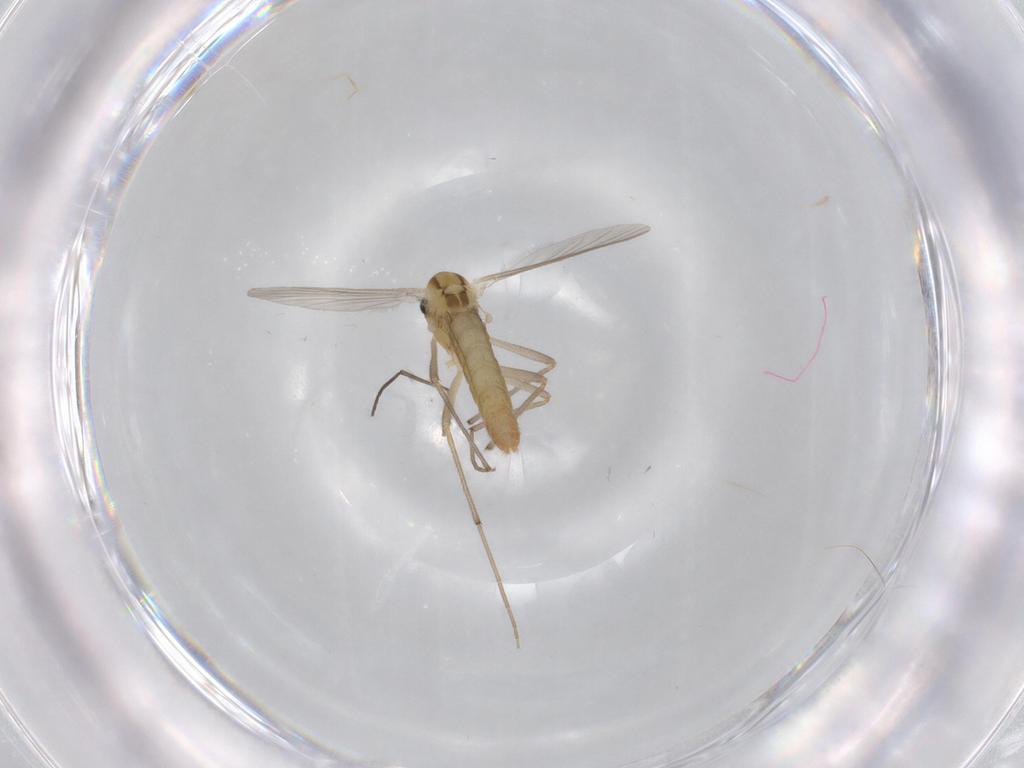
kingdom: Animalia
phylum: Arthropoda
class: Insecta
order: Diptera
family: Chironomidae
